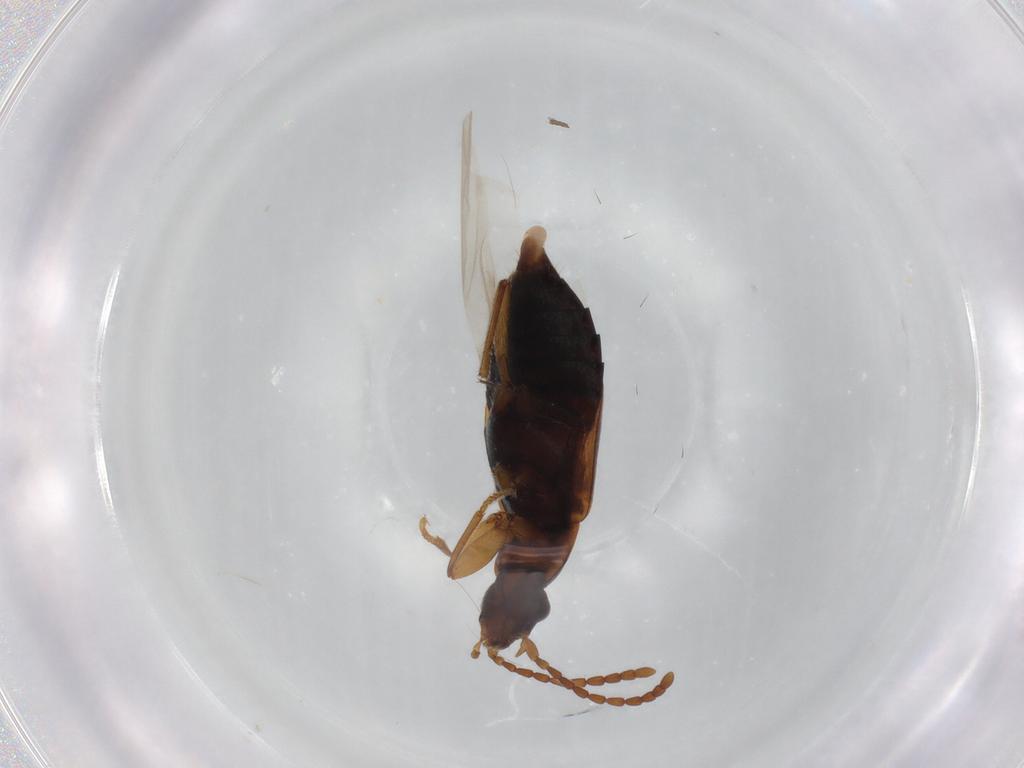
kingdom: Animalia
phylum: Arthropoda
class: Insecta
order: Coleoptera
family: Staphylinidae
